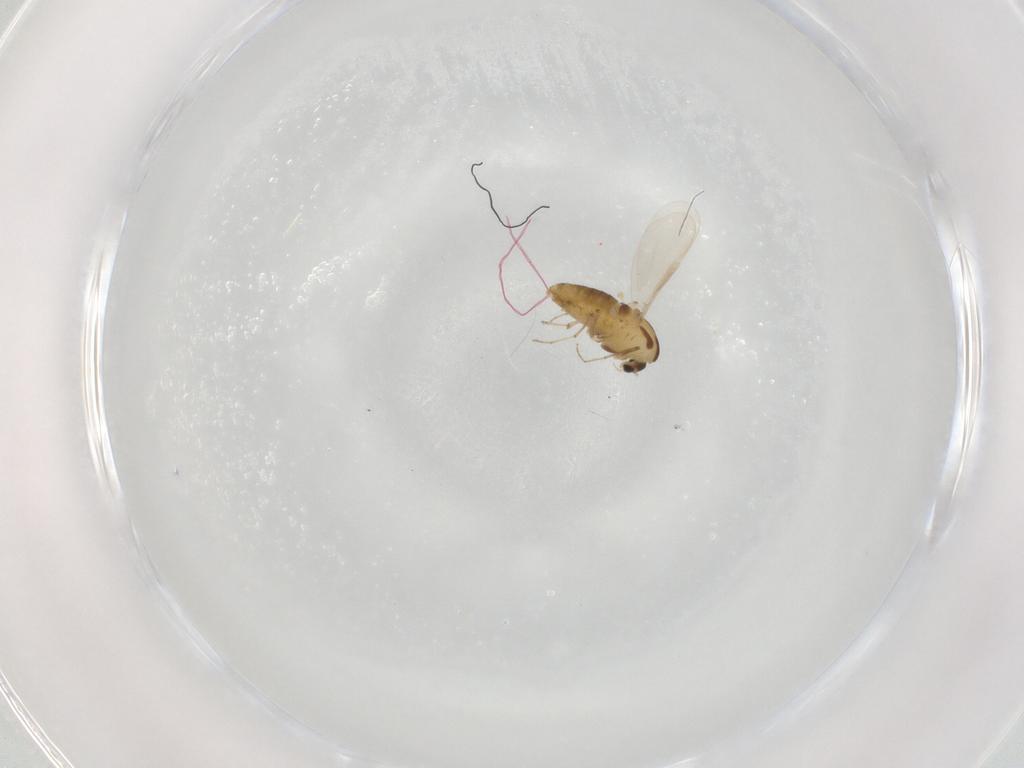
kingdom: Animalia
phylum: Arthropoda
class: Insecta
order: Diptera
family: Chironomidae
